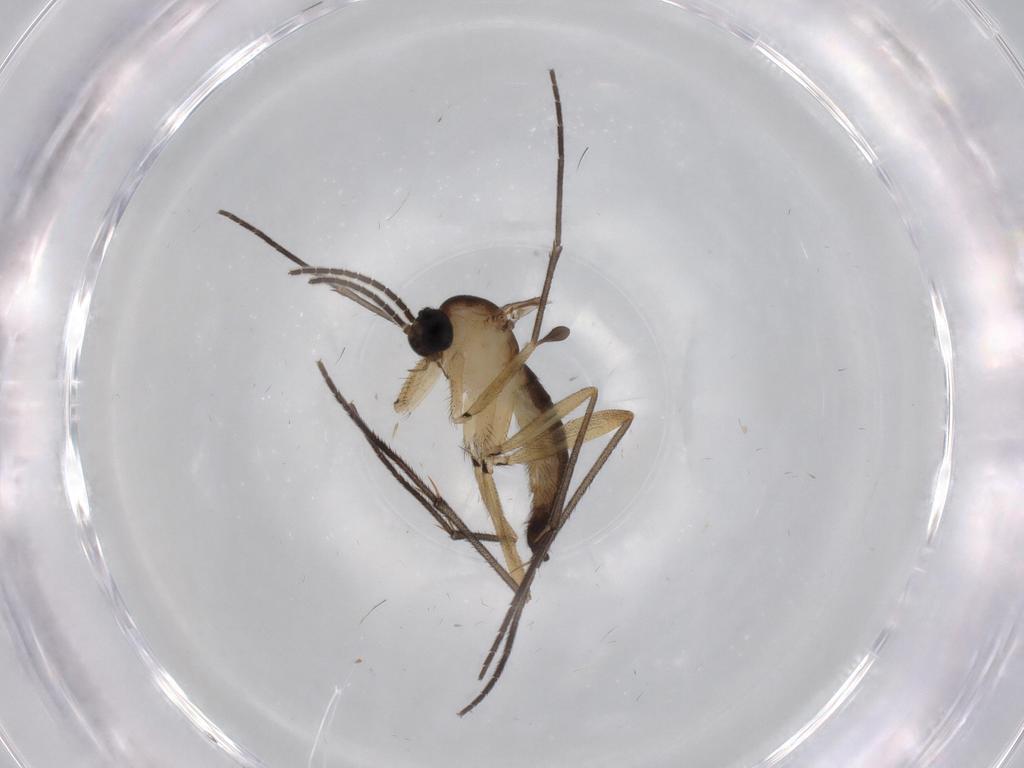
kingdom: Animalia
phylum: Arthropoda
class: Insecta
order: Diptera
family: Sciaridae
